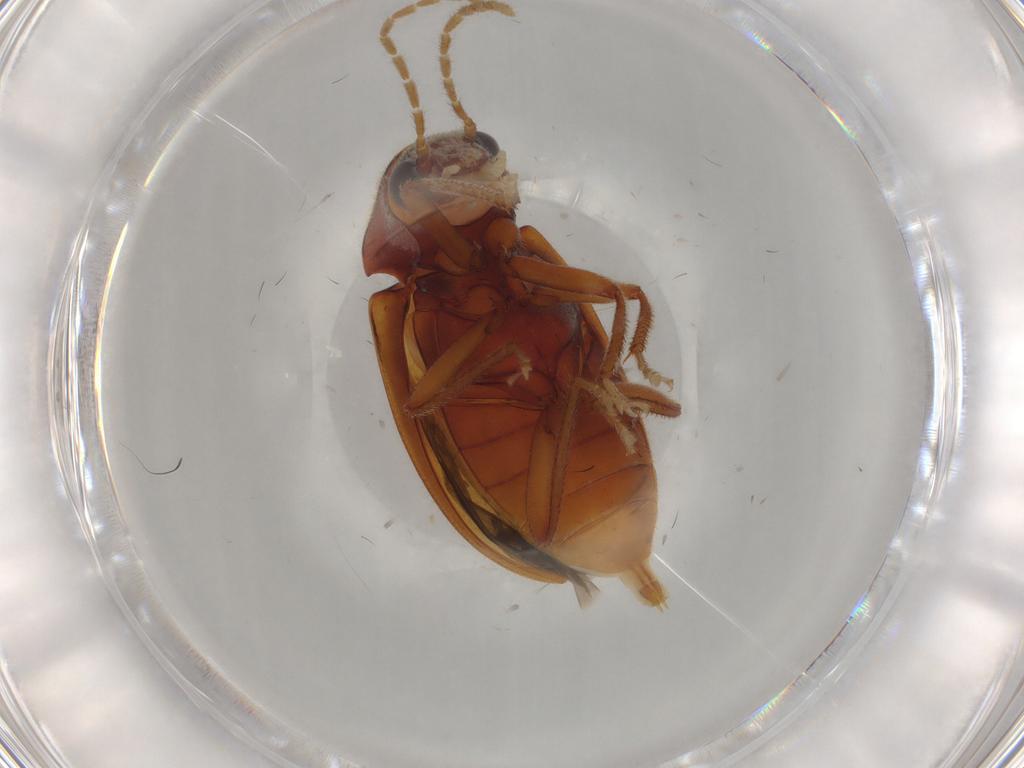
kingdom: Animalia
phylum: Arthropoda
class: Insecta
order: Coleoptera
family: Ptilodactylidae
